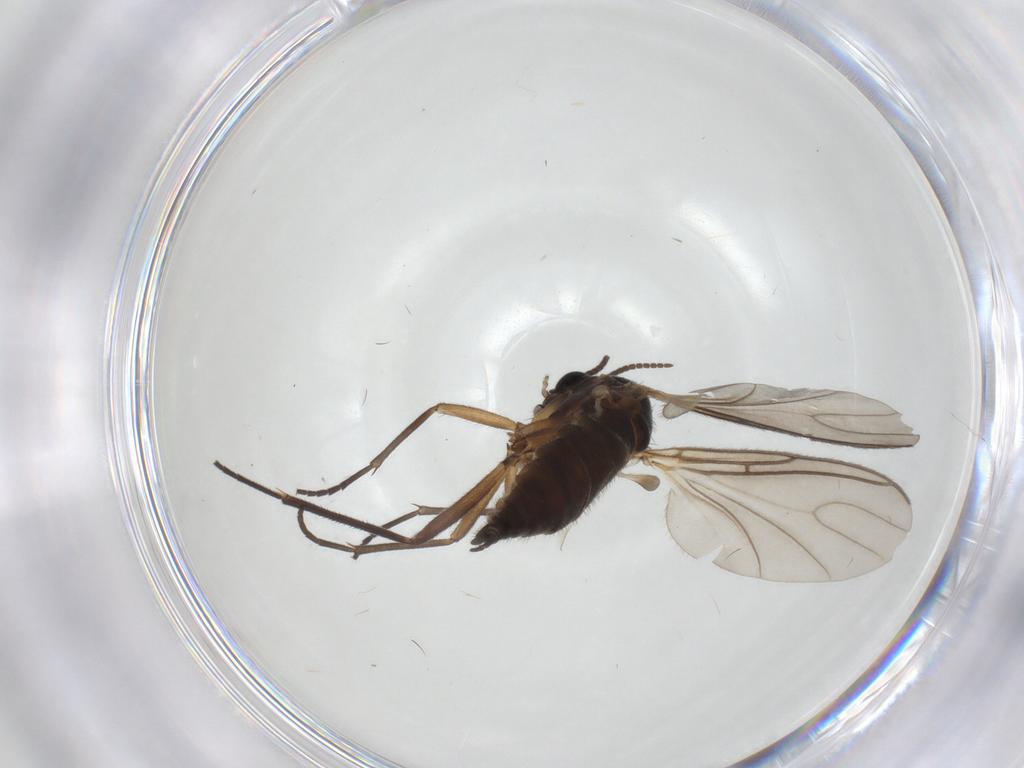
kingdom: Animalia
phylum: Arthropoda
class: Insecta
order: Diptera
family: Sciaridae
